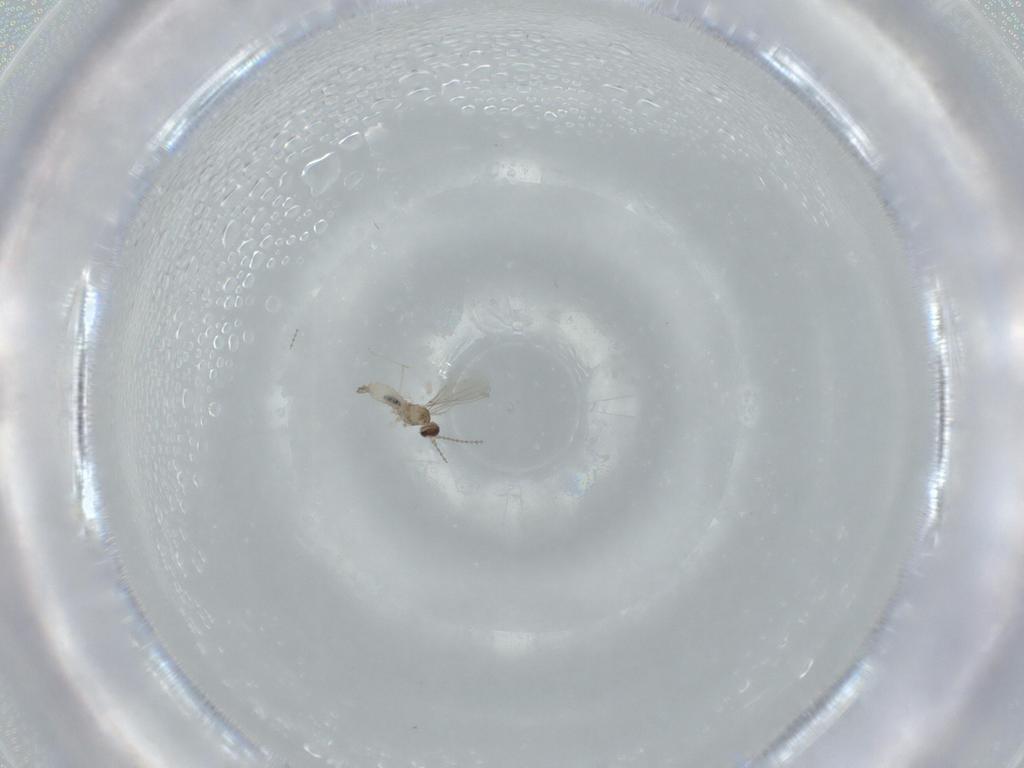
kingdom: Animalia
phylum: Arthropoda
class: Insecta
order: Diptera
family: Cecidomyiidae
